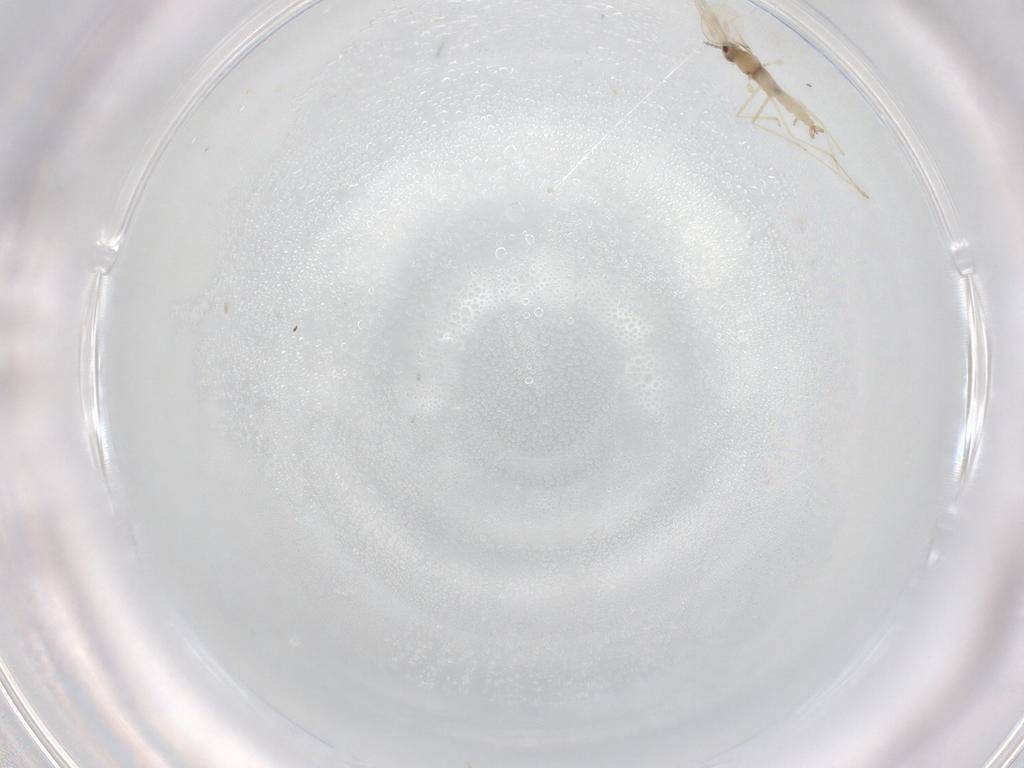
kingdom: Animalia
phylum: Arthropoda
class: Insecta
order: Diptera
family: Cecidomyiidae
